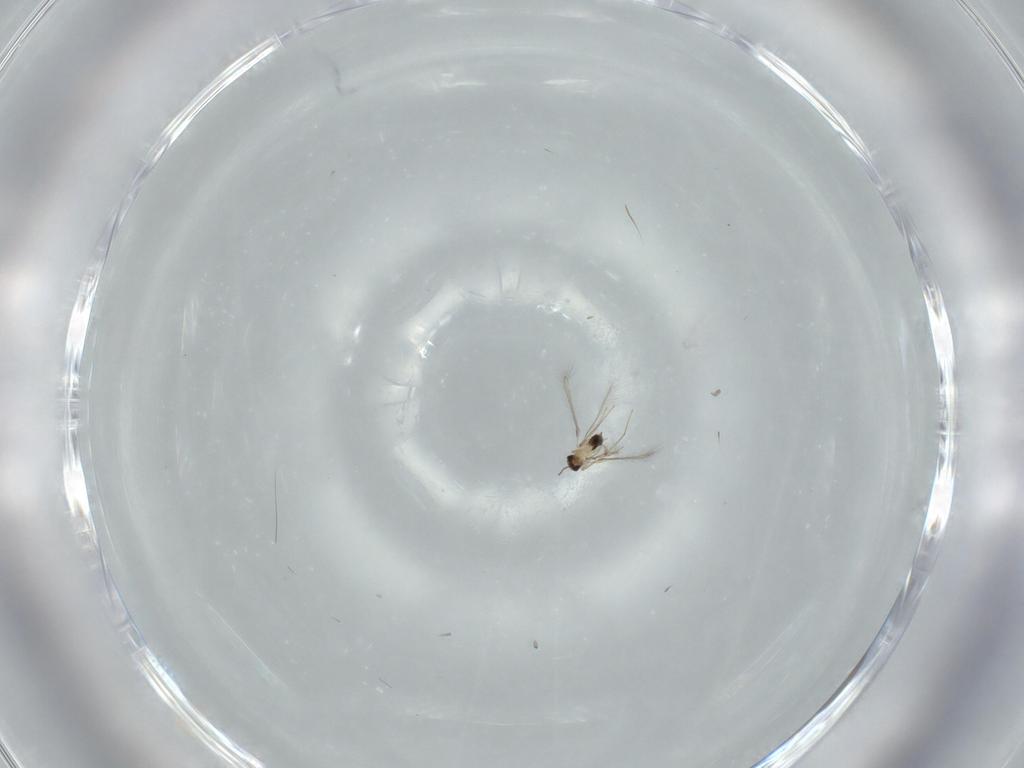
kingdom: Animalia
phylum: Arthropoda
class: Insecta
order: Hymenoptera
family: Mymaridae
